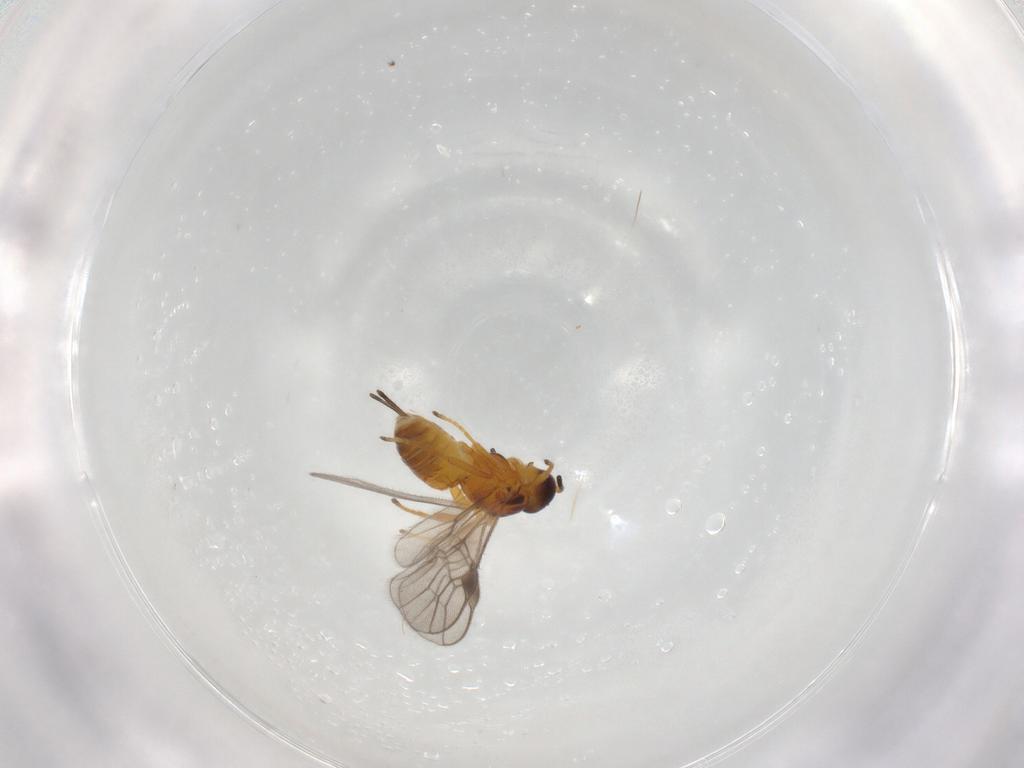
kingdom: Animalia
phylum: Arthropoda
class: Insecta
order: Hymenoptera
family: Braconidae
